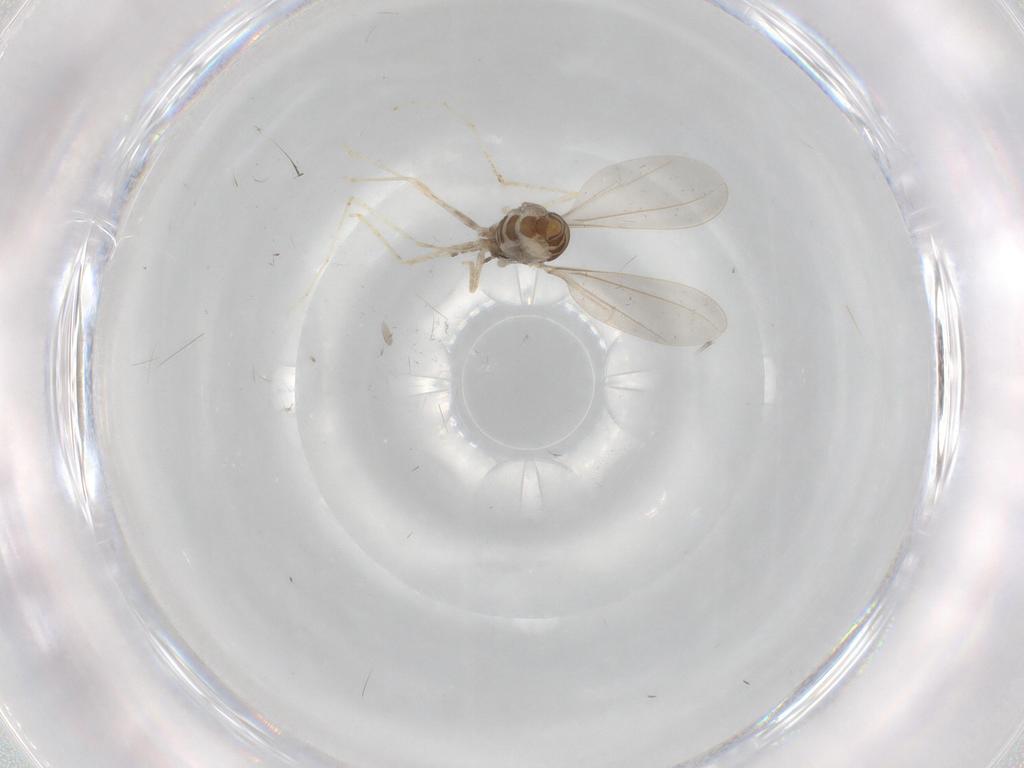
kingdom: Animalia
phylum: Arthropoda
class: Insecta
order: Diptera
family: Cecidomyiidae
